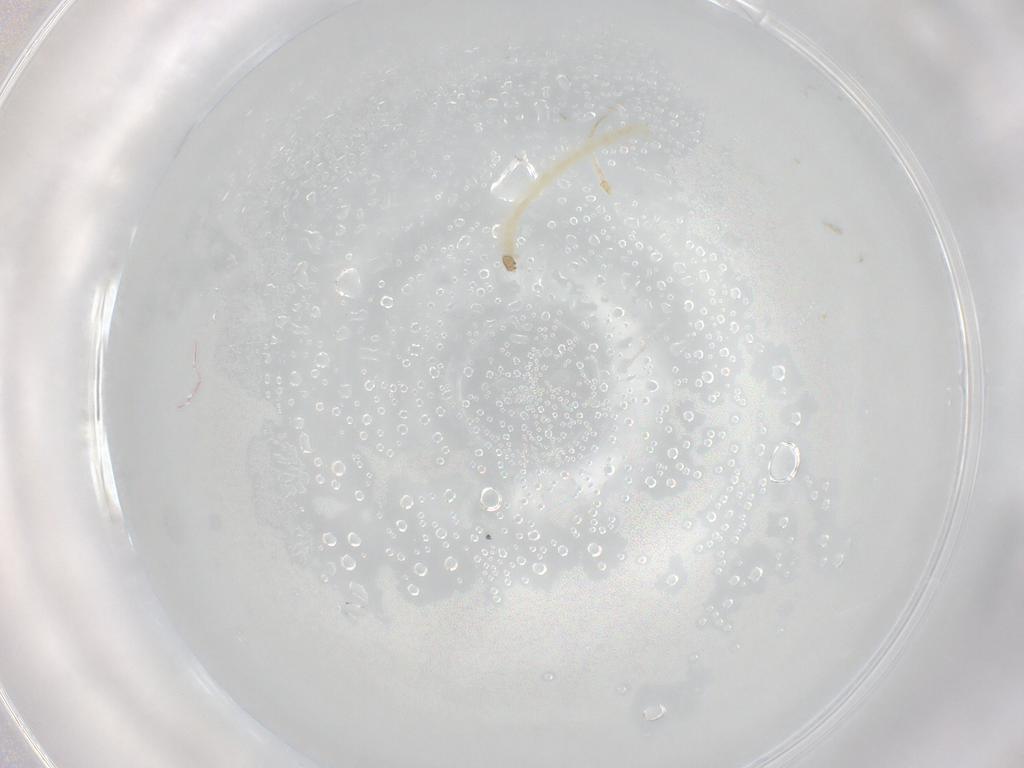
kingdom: Animalia
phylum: Arthropoda
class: Insecta
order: Diptera
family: Chironomidae
